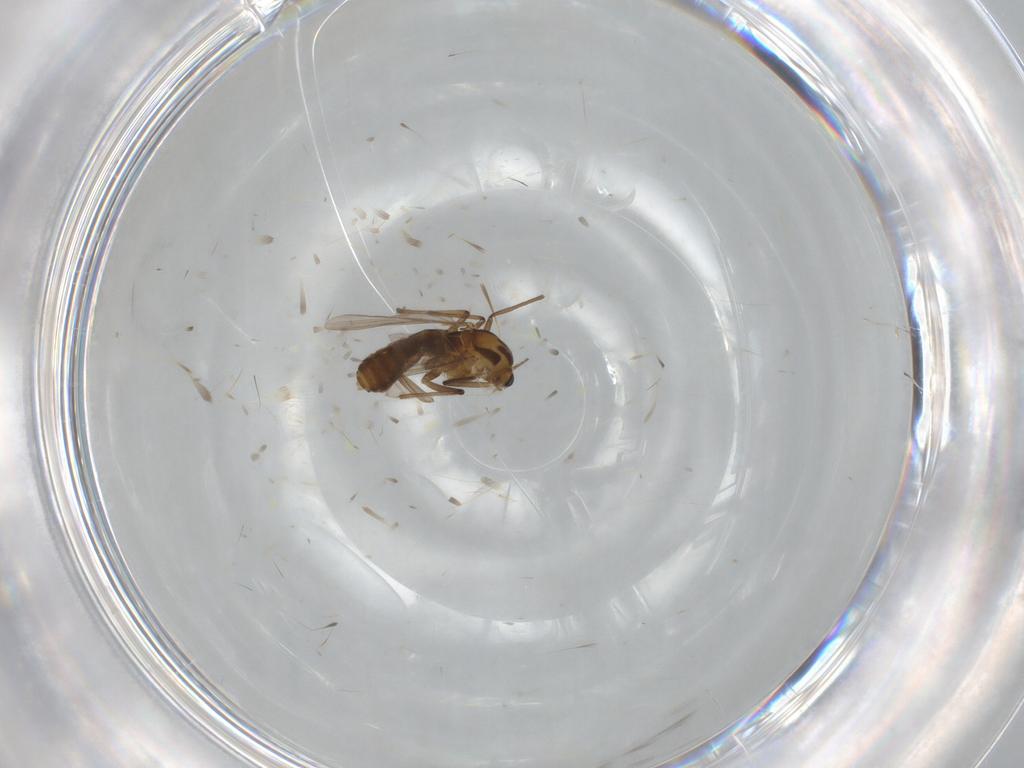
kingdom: Animalia
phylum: Arthropoda
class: Insecta
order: Diptera
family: Chironomidae
